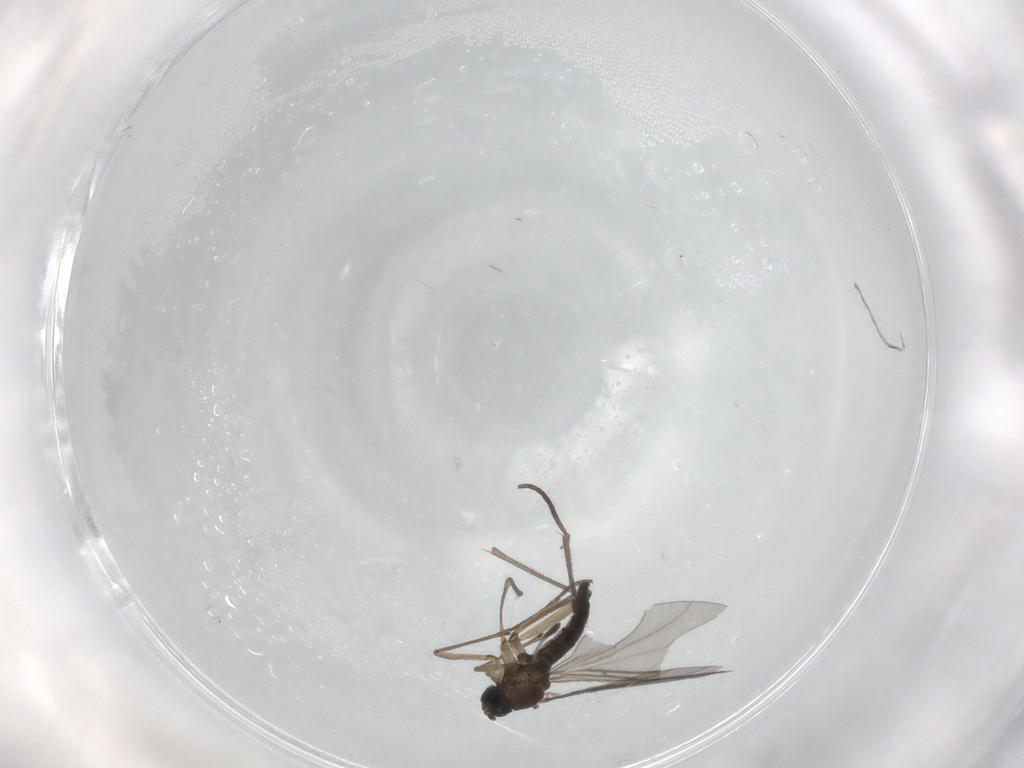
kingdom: Animalia
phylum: Arthropoda
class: Insecta
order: Diptera
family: Sciaridae
